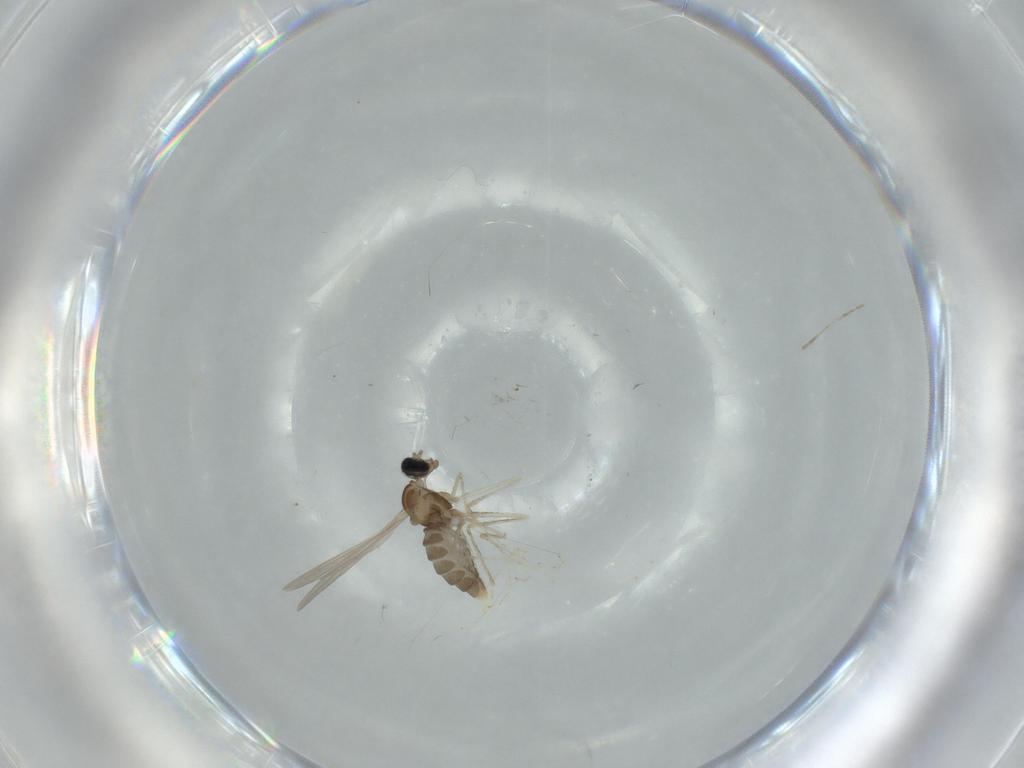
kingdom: Animalia
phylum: Arthropoda
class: Insecta
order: Diptera
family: Cecidomyiidae
